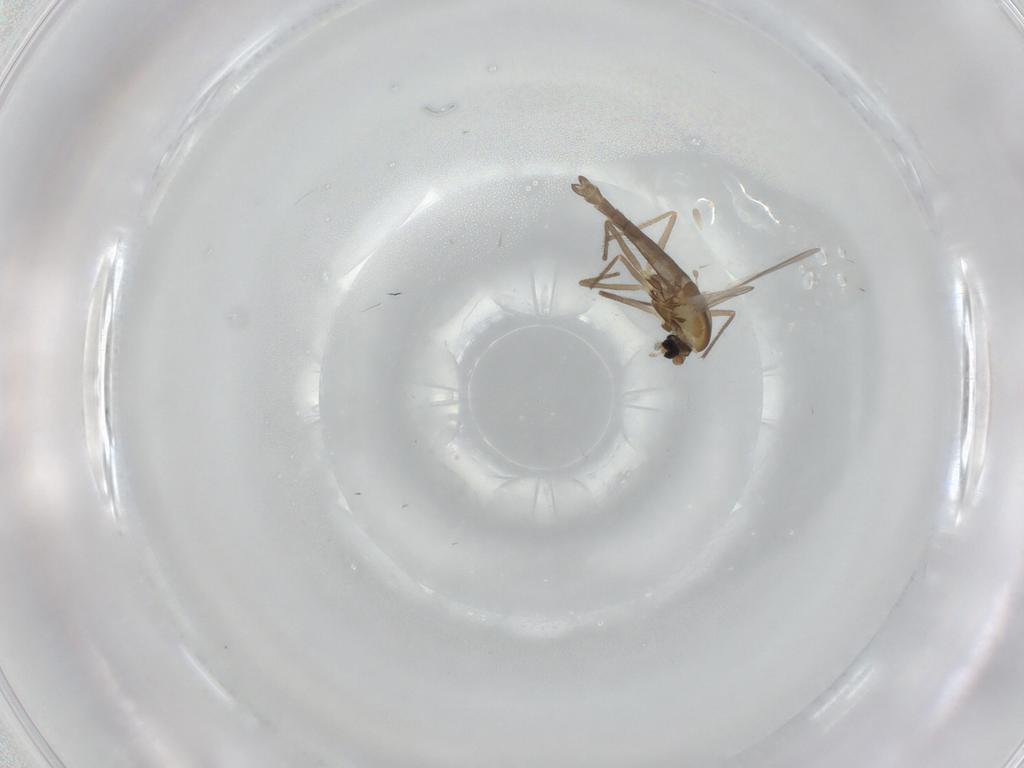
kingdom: Animalia
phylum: Arthropoda
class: Insecta
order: Diptera
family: Chironomidae
